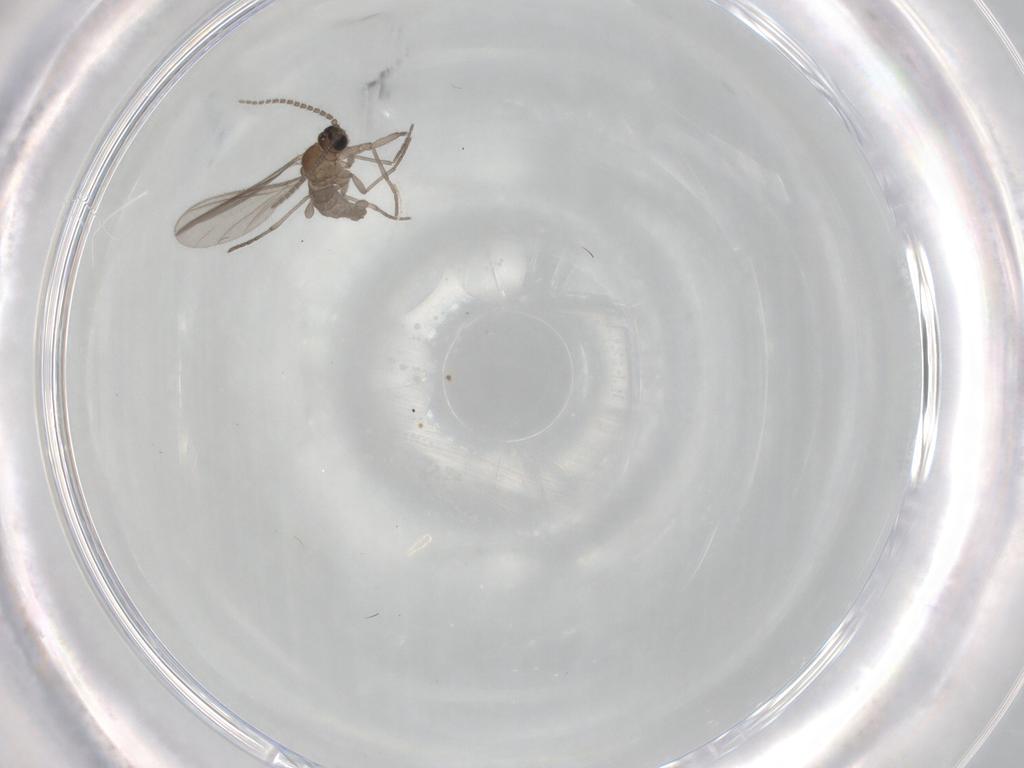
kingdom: Animalia
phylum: Arthropoda
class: Insecta
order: Diptera
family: Sciaridae
